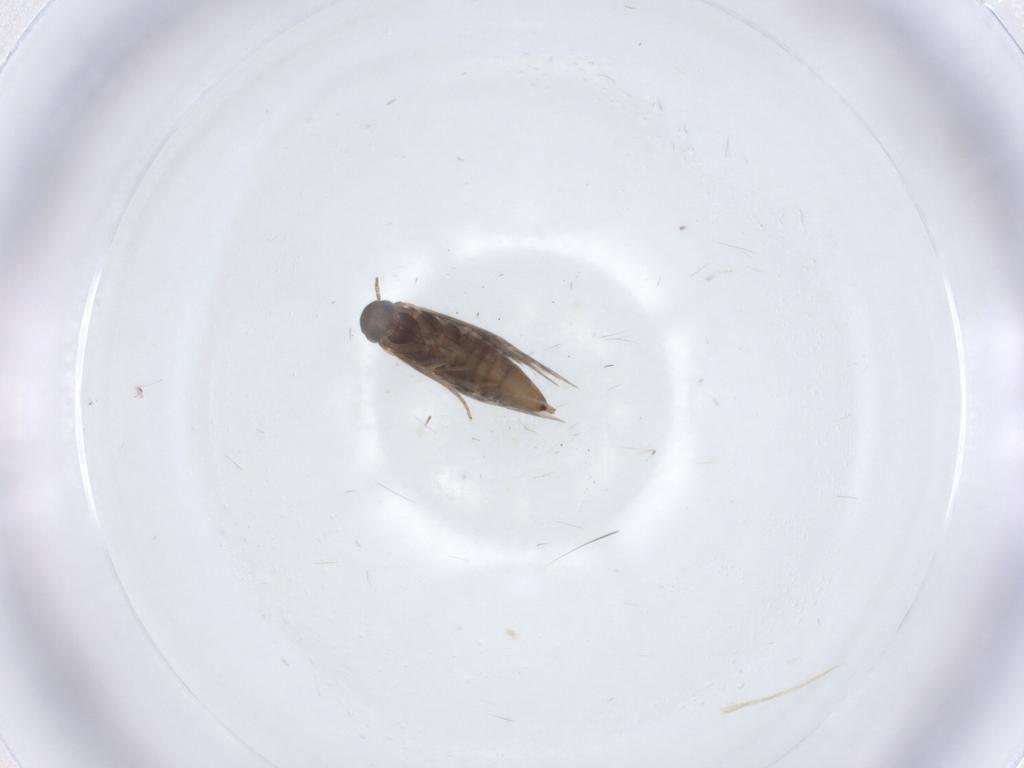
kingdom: Animalia
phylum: Arthropoda
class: Insecta
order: Lepidoptera
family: Heliozelidae
